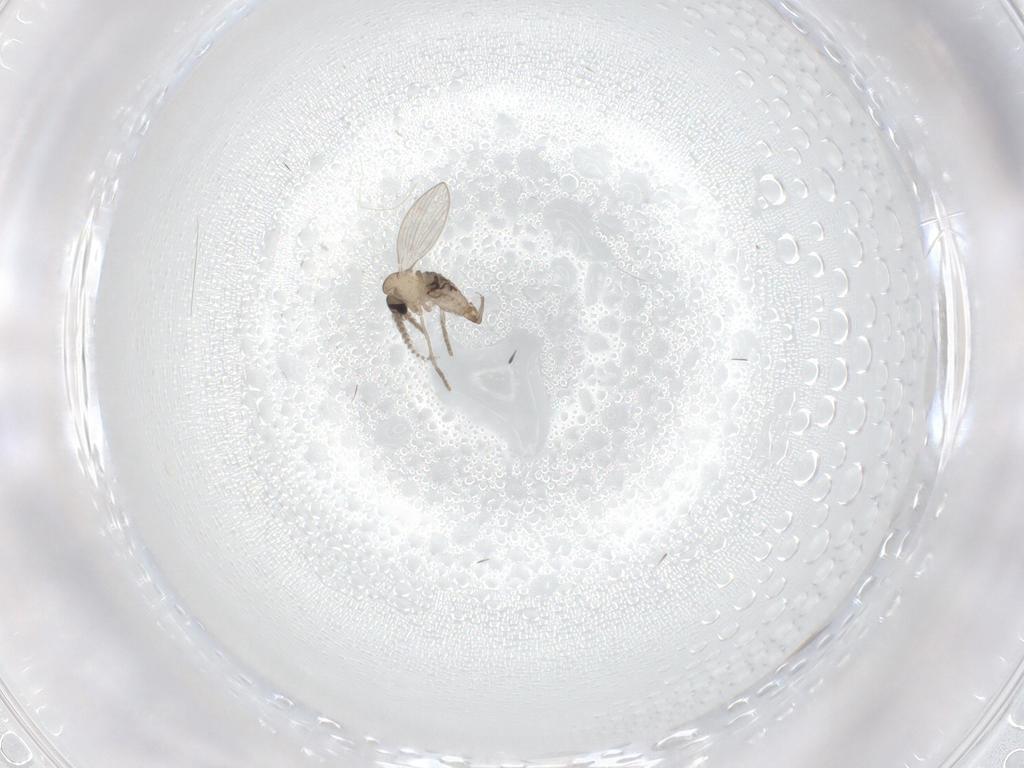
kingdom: Animalia
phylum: Arthropoda
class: Insecta
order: Diptera
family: Psychodidae
